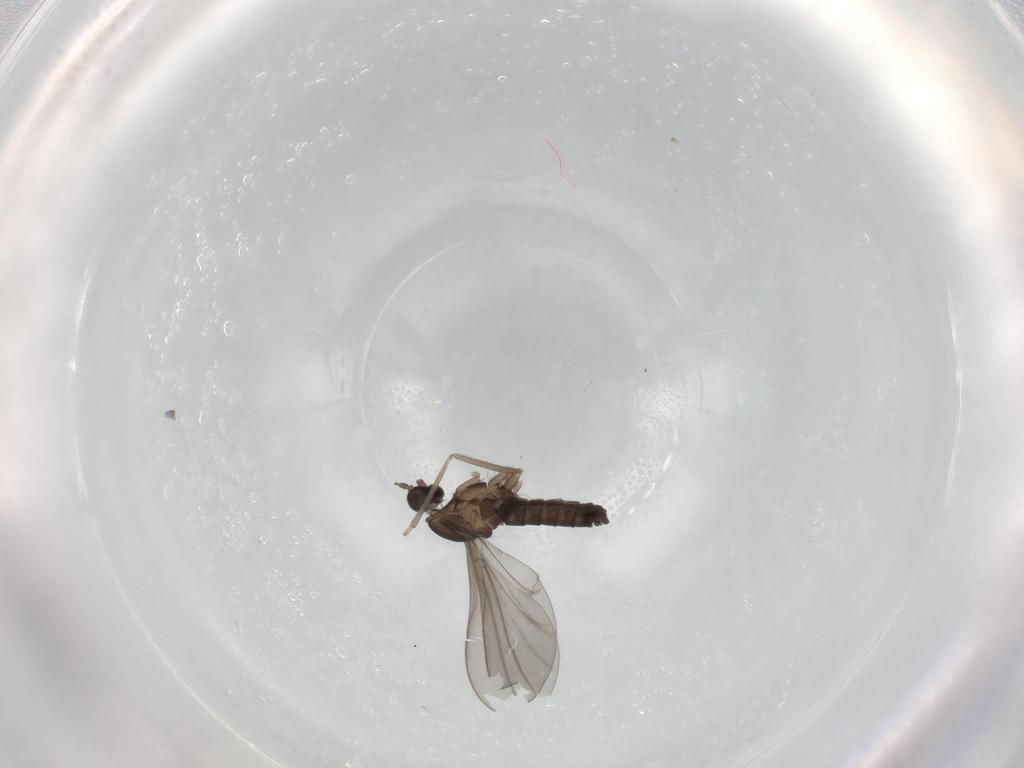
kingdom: Animalia
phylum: Arthropoda
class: Insecta
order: Diptera
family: Cecidomyiidae
